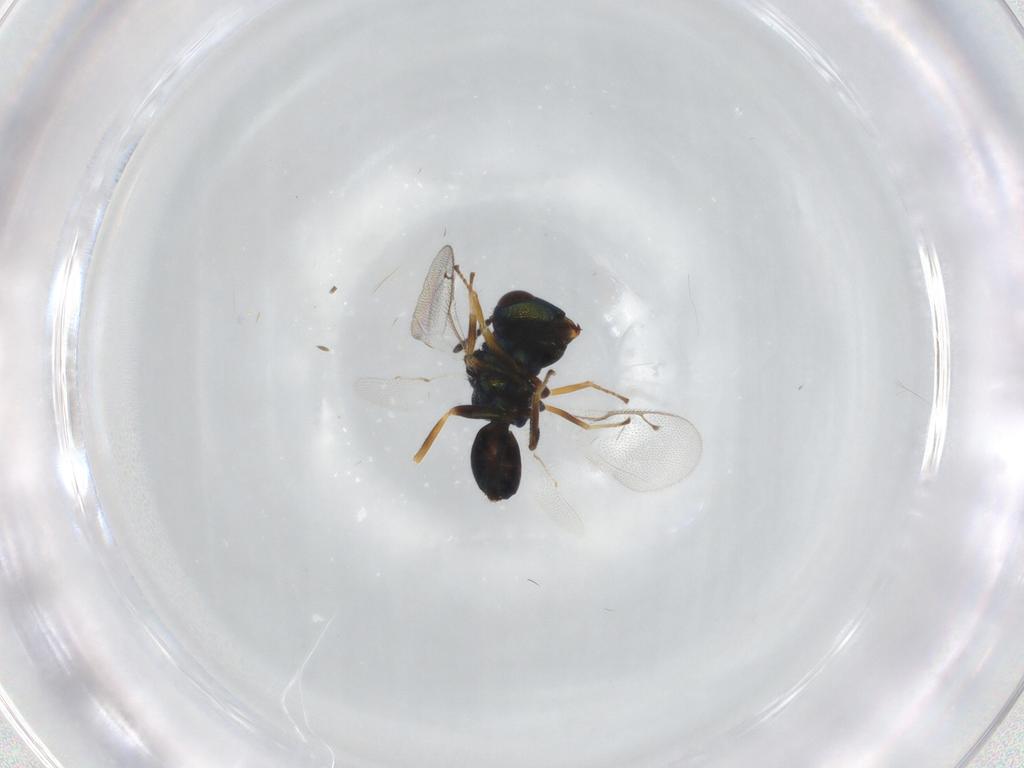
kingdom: Animalia
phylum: Arthropoda
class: Insecta
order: Hymenoptera
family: Pteromalidae
